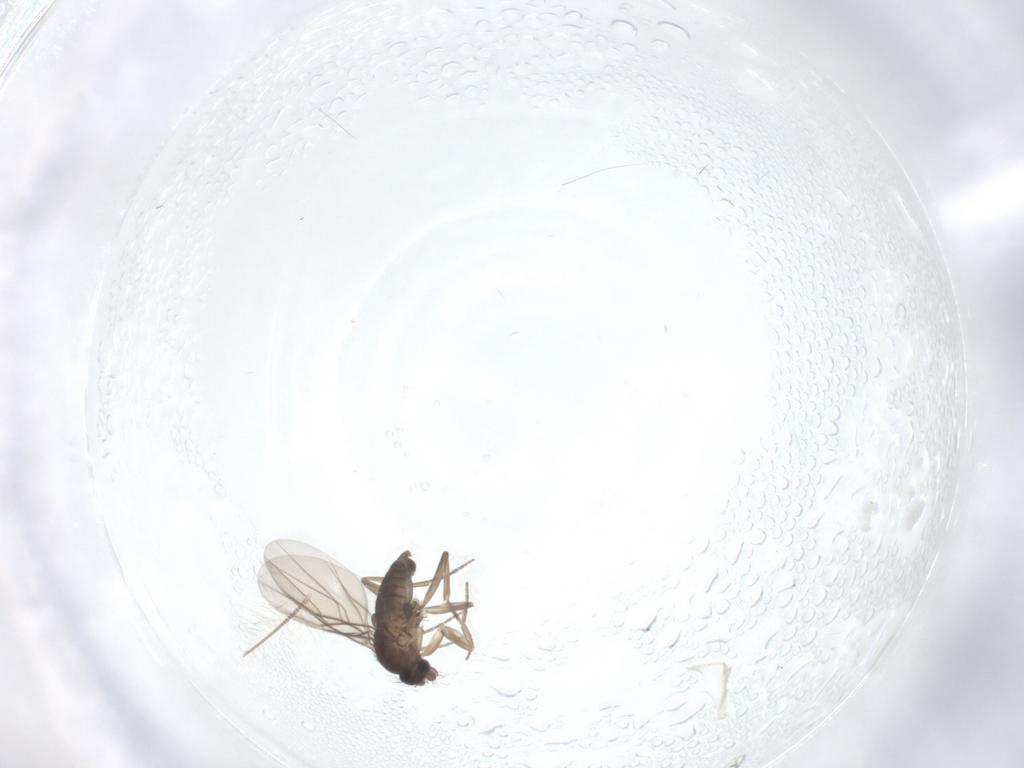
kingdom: Animalia
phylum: Arthropoda
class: Insecta
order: Diptera
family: Phoridae
